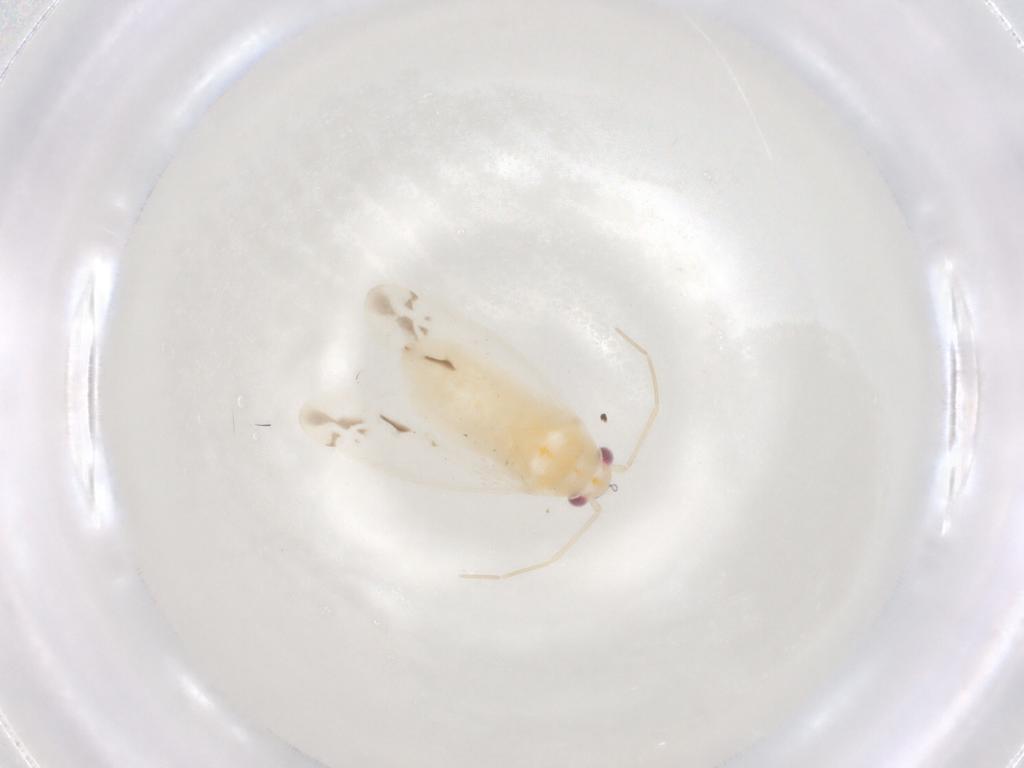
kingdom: Animalia
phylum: Arthropoda
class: Insecta
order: Hemiptera
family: Miridae
